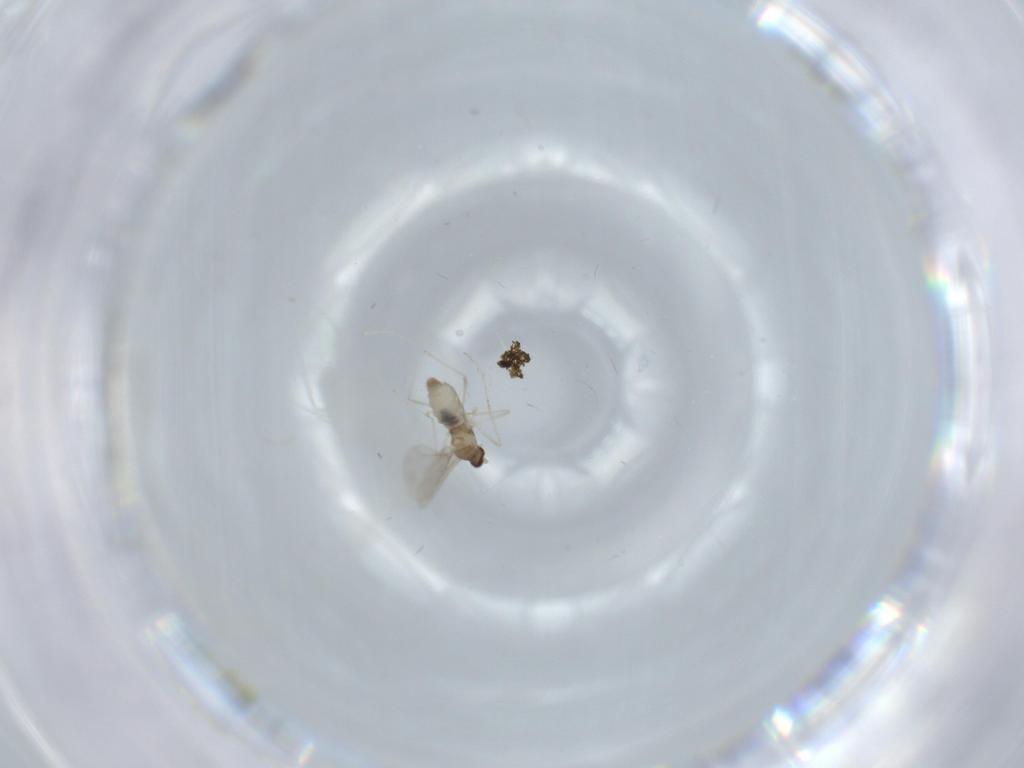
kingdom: Animalia
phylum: Arthropoda
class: Insecta
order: Diptera
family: Cecidomyiidae
